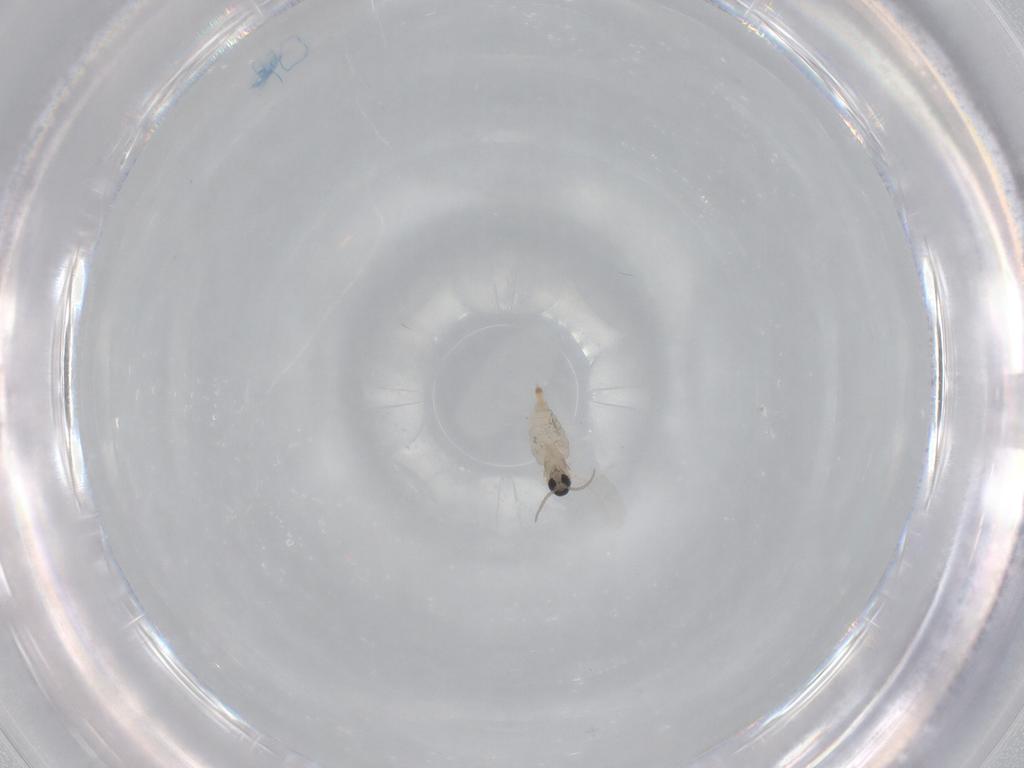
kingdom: Animalia
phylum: Arthropoda
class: Insecta
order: Diptera
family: Cecidomyiidae
